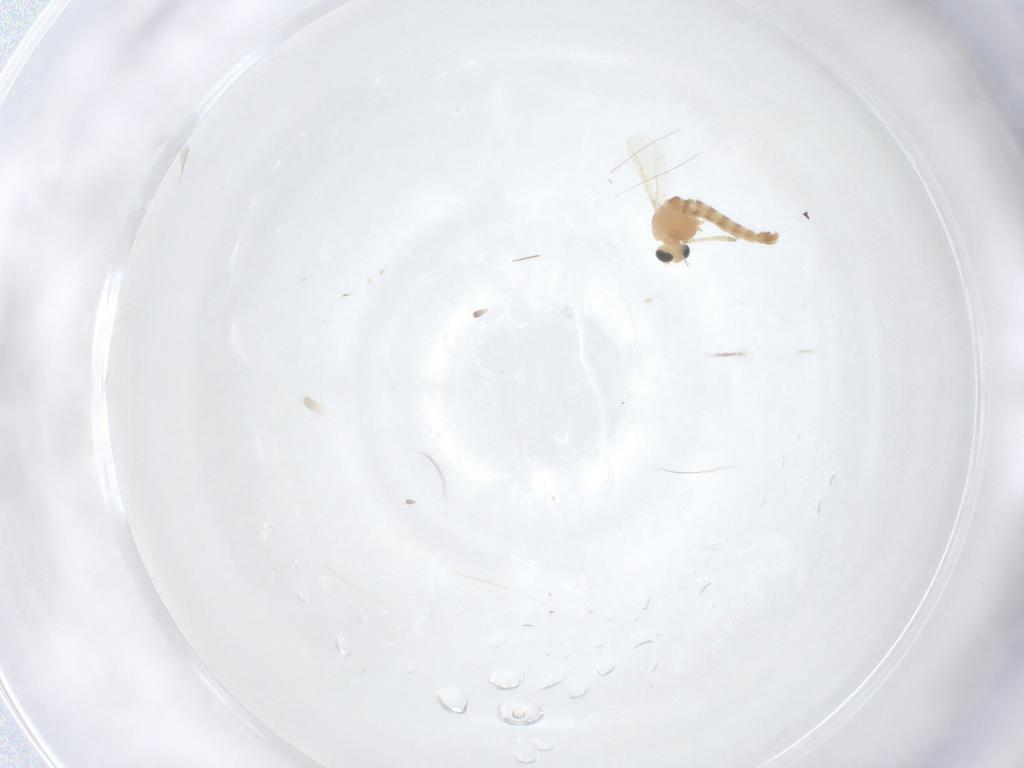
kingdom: Animalia
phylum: Arthropoda
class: Insecta
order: Diptera
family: Chironomidae
